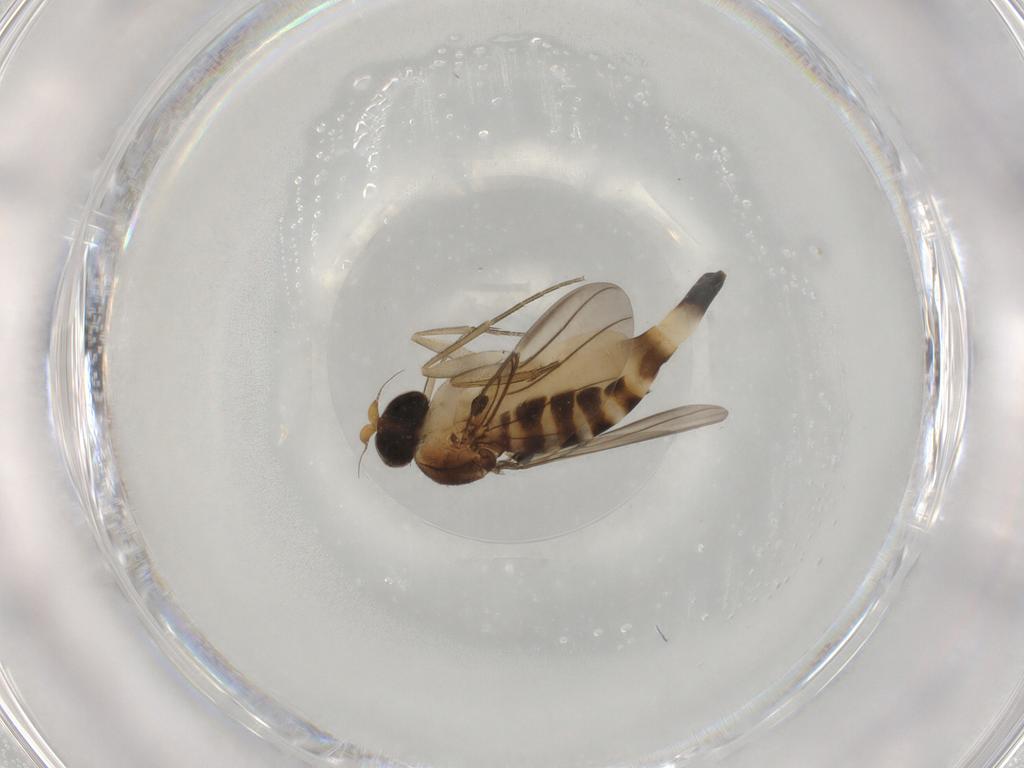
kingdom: Animalia
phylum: Arthropoda
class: Insecta
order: Diptera
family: Phoridae
